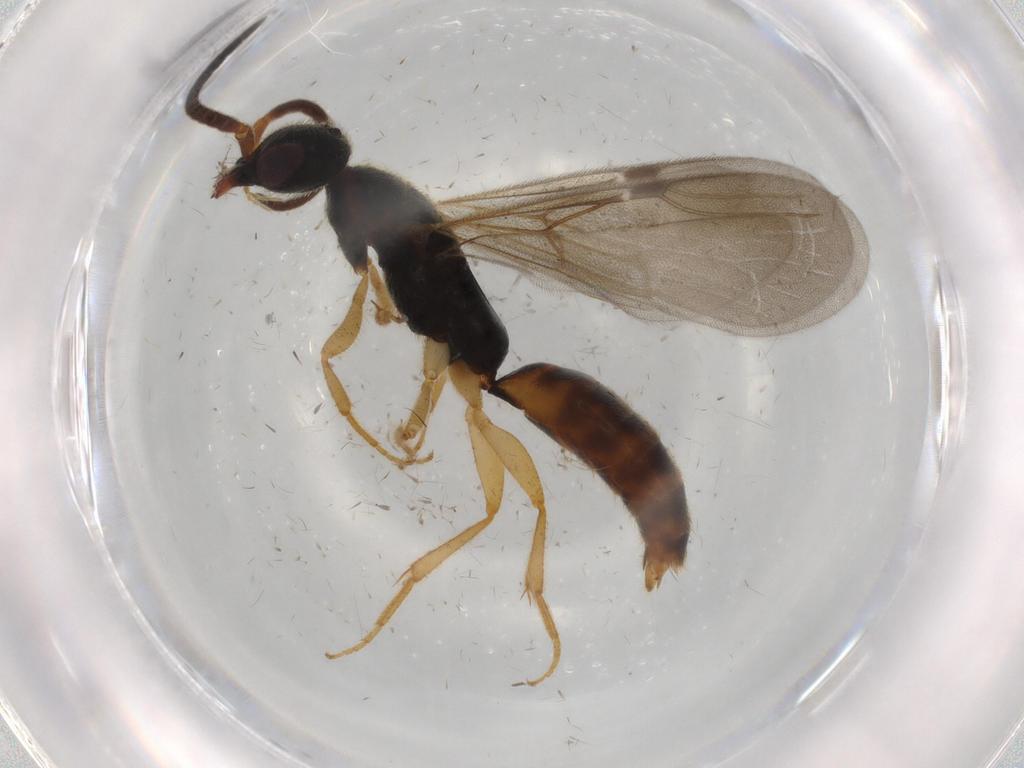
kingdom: Animalia
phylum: Arthropoda
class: Insecta
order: Hymenoptera
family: Bethylidae
